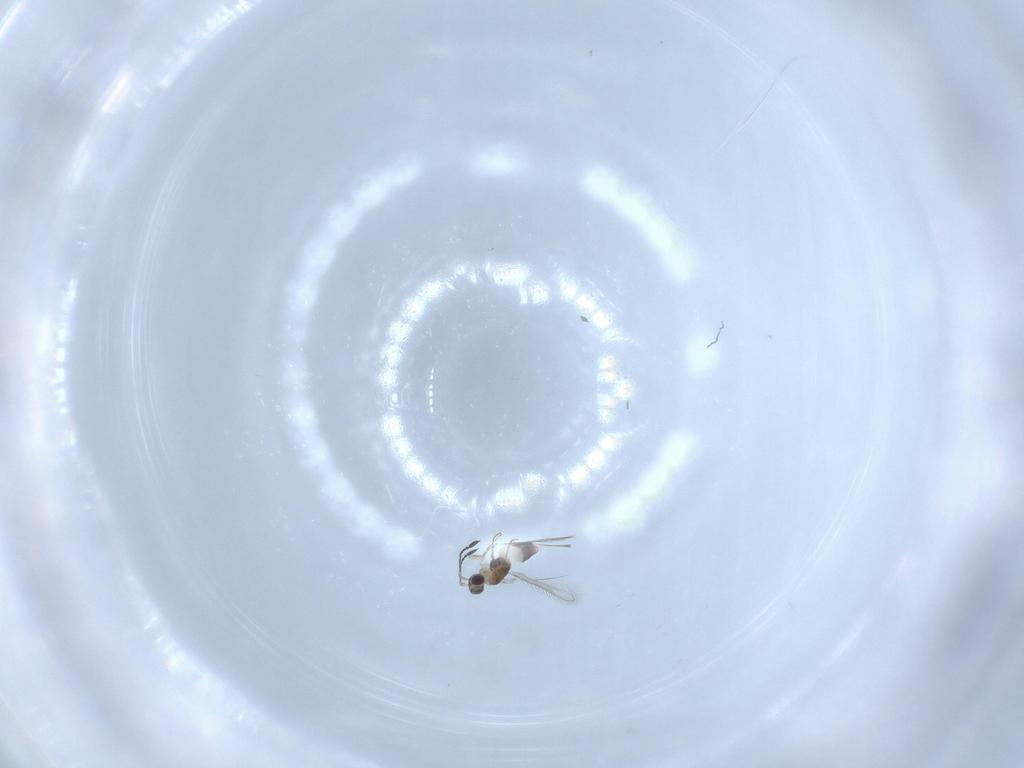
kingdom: Animalia
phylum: Arthropoda
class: Insecta
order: Hymenoptera
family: Mymaridae
